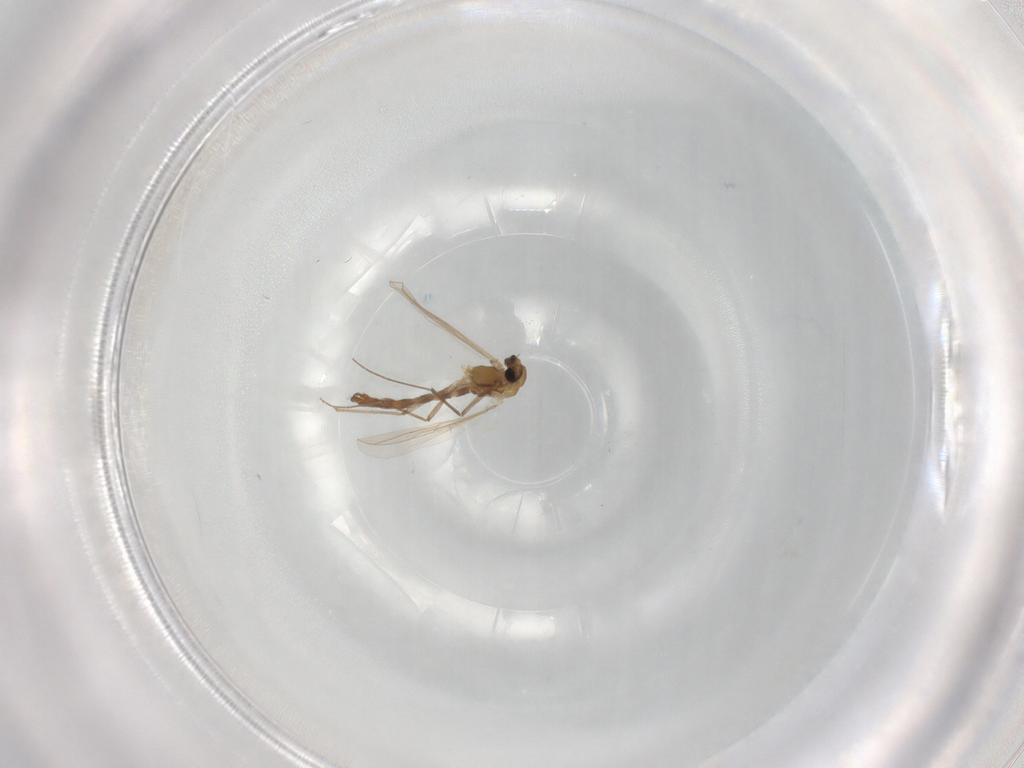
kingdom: Animalia
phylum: Arthropoda
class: Insecta
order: Diptera
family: Chironomidae
